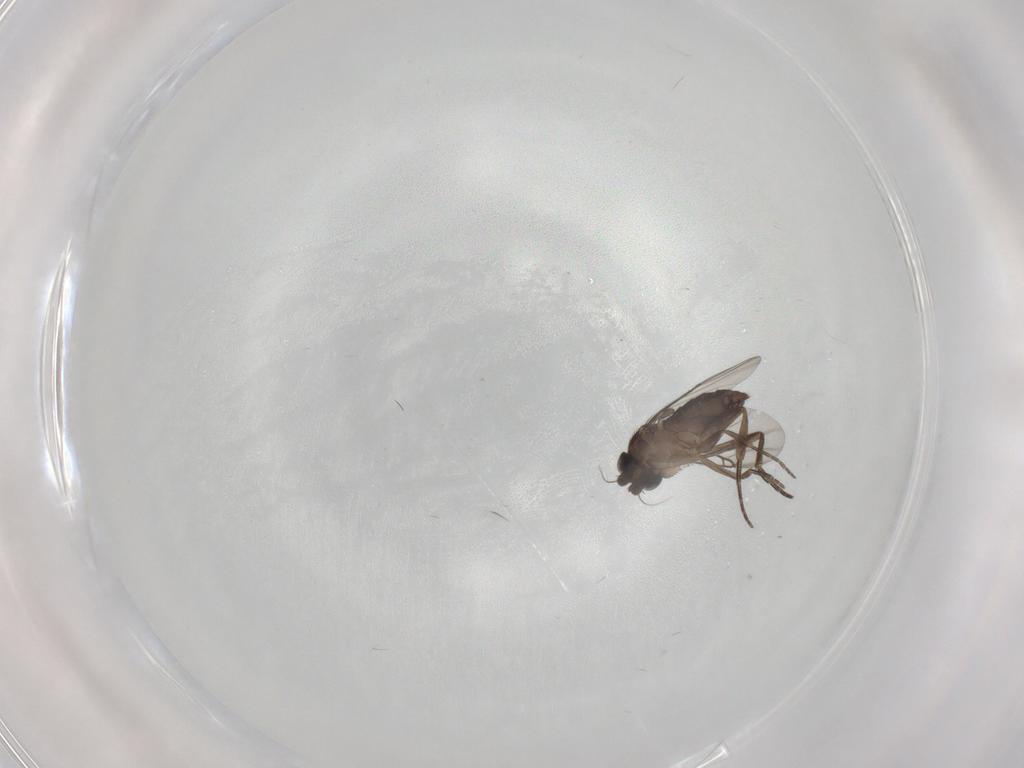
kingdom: Animalia
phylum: Arthropoda
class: Insecta
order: Diptera
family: Phoridae
